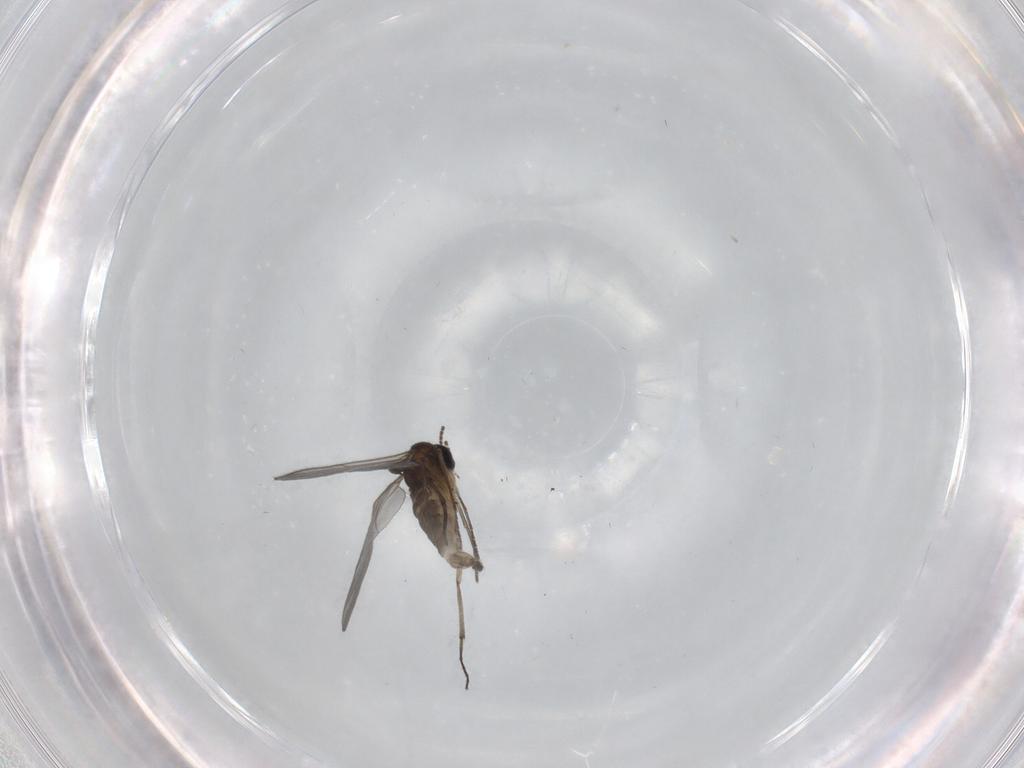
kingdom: Animalia
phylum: Arthropoda
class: Insecta
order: Diptera
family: Sciaridae
